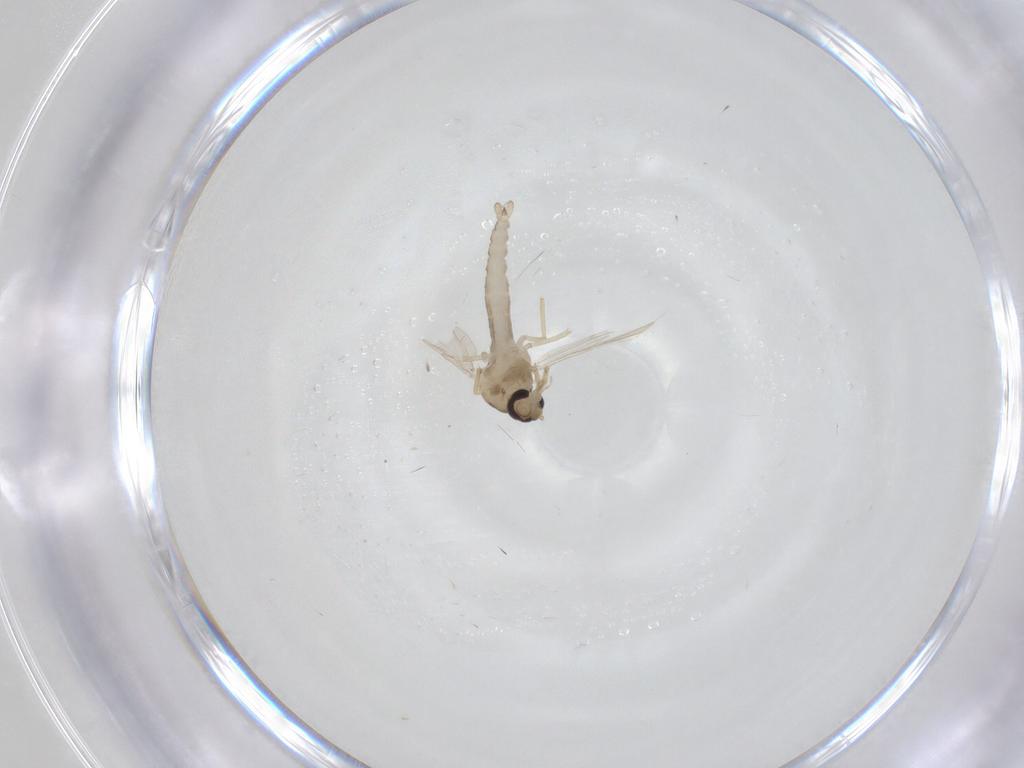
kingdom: Animalia
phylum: Arthropoda
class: Insecta
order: Diptera
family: Ceratopogonidae
